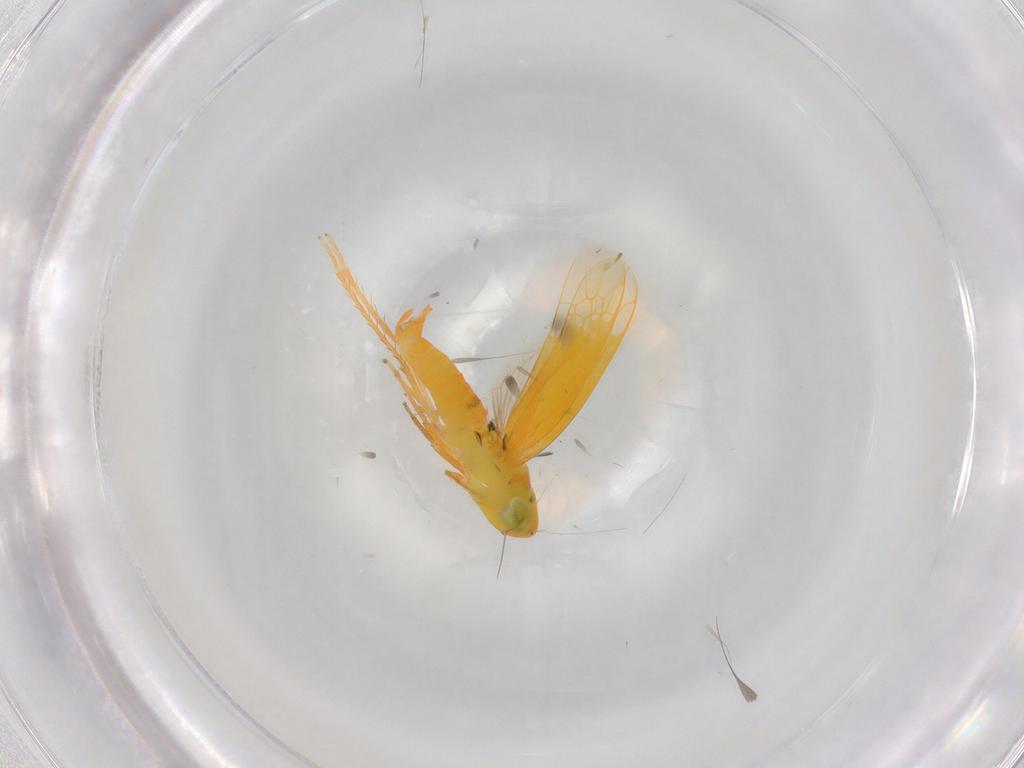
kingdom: Animalia
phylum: Arthropoda
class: Insecta
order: Hemiptera
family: Cicadellidae
